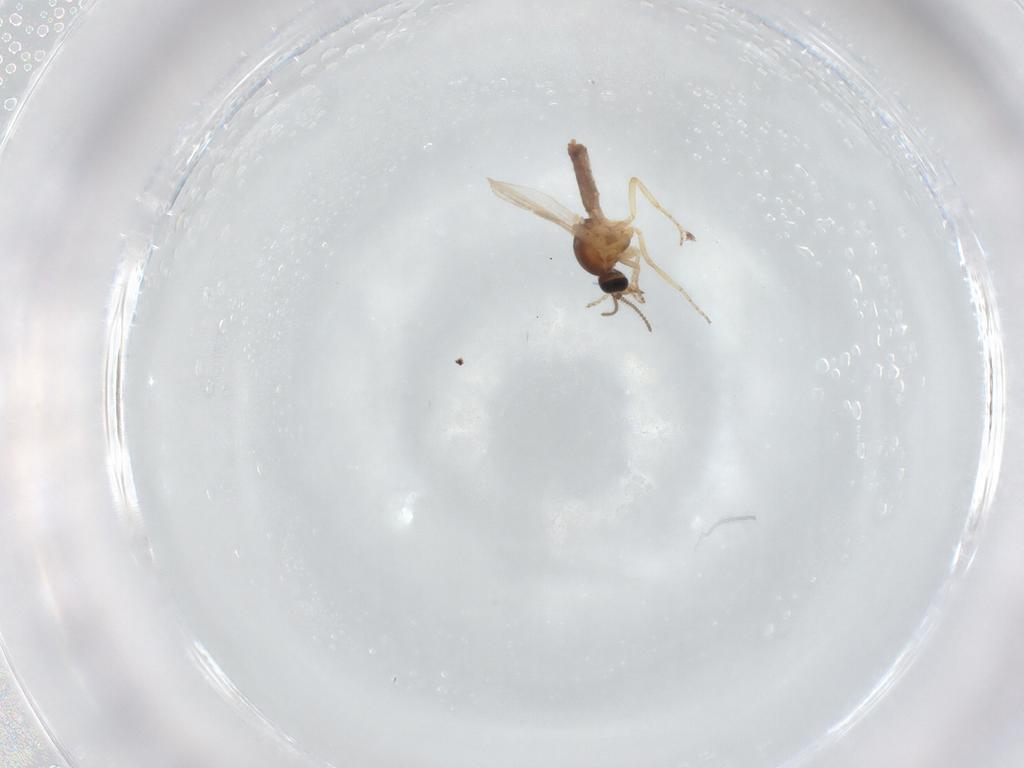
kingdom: Animalia
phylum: Arthropoda
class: Insecta
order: Diptera
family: Ceratopogonidae
